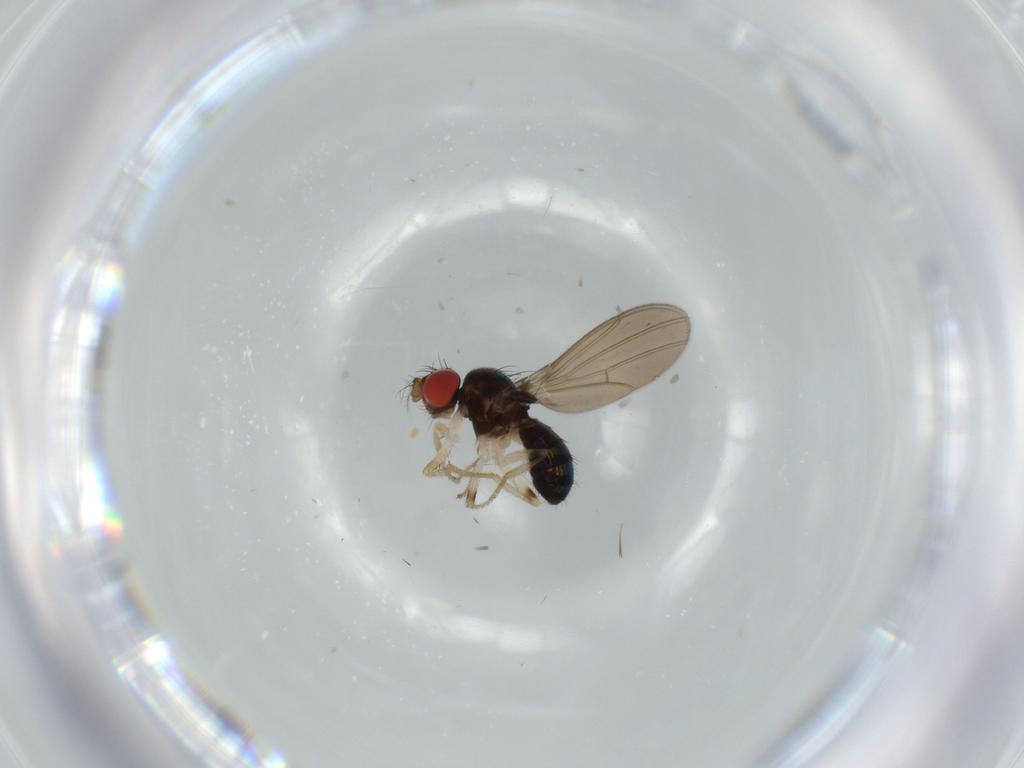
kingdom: Animalia
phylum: Arthropoda
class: Insecta
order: Diptera
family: Drosophilidae
